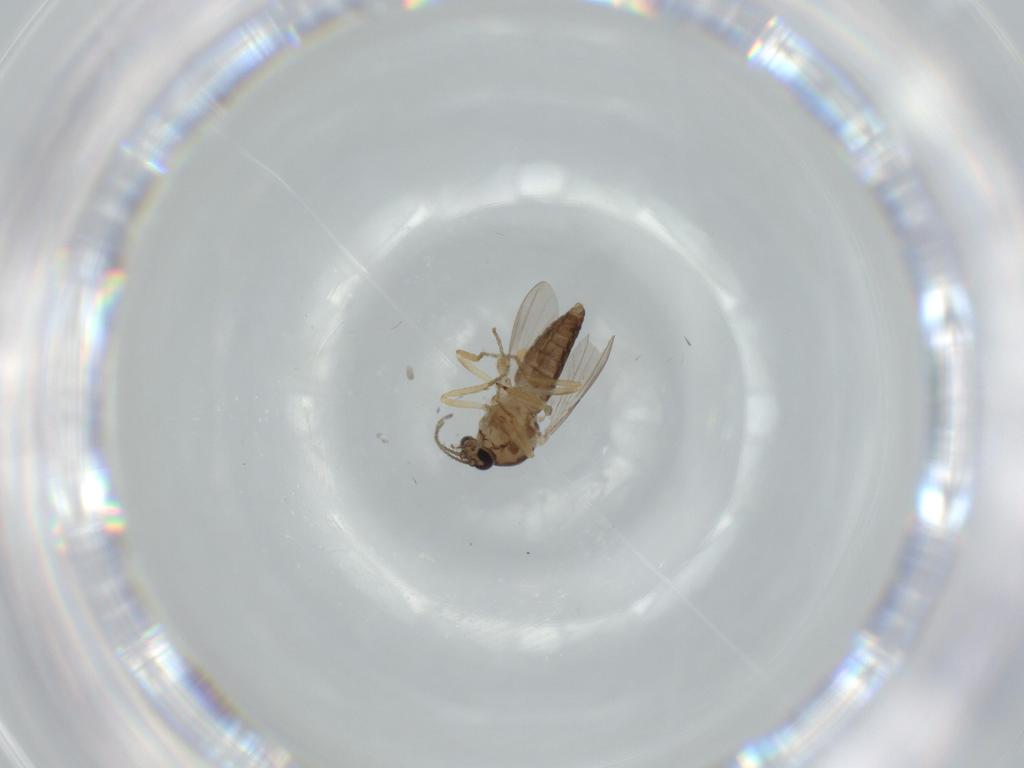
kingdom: Animalia
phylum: Arthropoda
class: Insecta
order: Diptera
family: Ceratopogonidae
